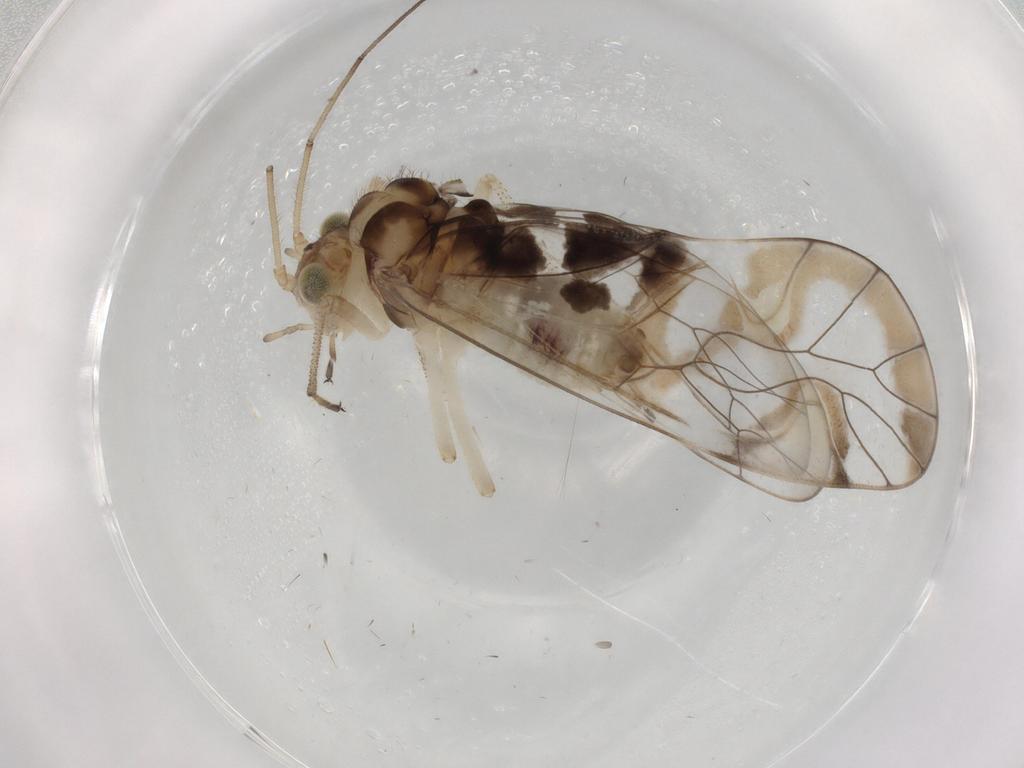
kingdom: Animalia
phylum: Arthropoda
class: Insecta
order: Psocodea
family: Amphipsocidae
